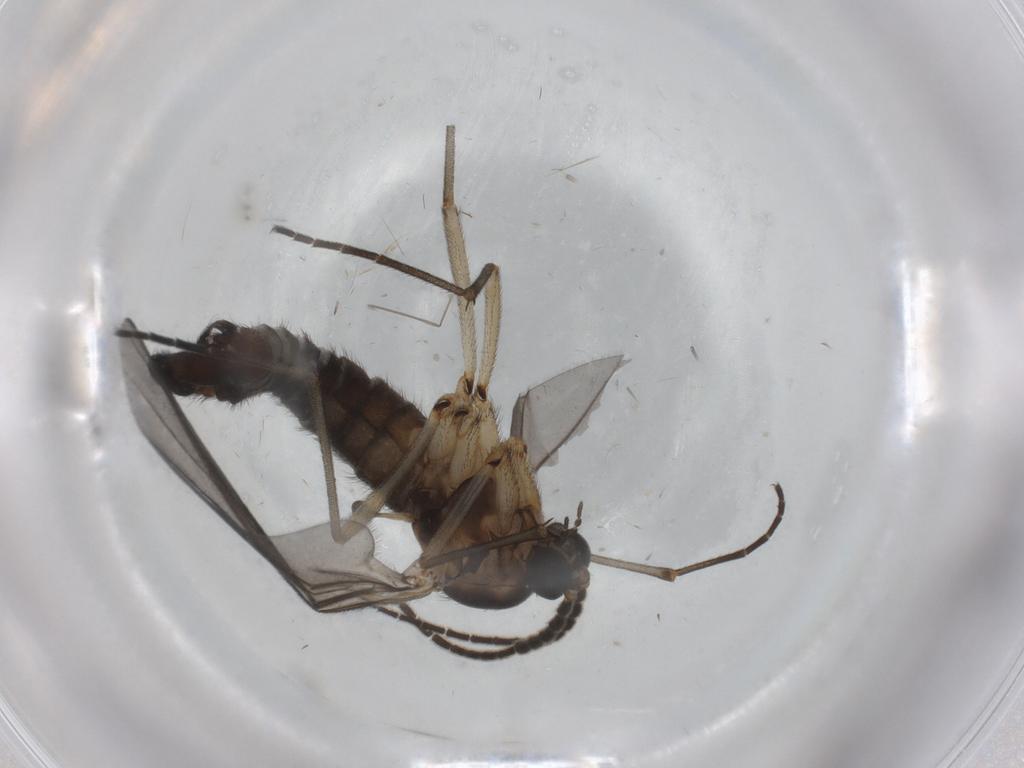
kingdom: Animalia
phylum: Arthropoda
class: Insecta
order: Diptera
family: Sciaridae
